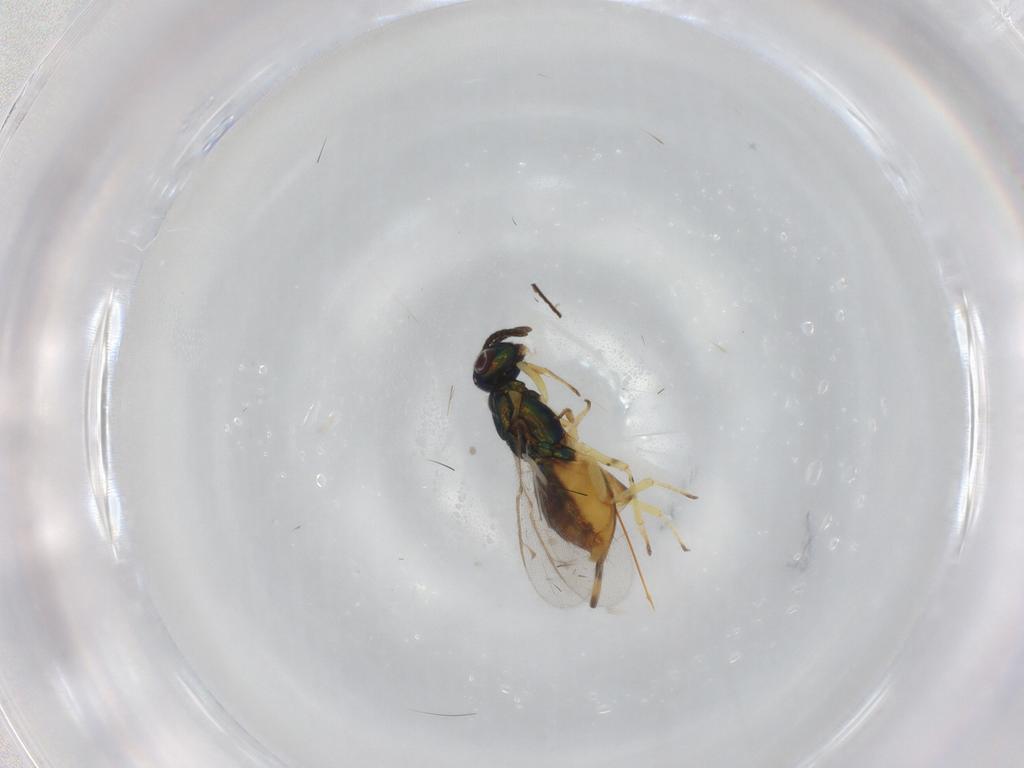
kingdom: Animalia
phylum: Arthropoda
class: Insecta
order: Hymenoptera
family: Eupelmidae
